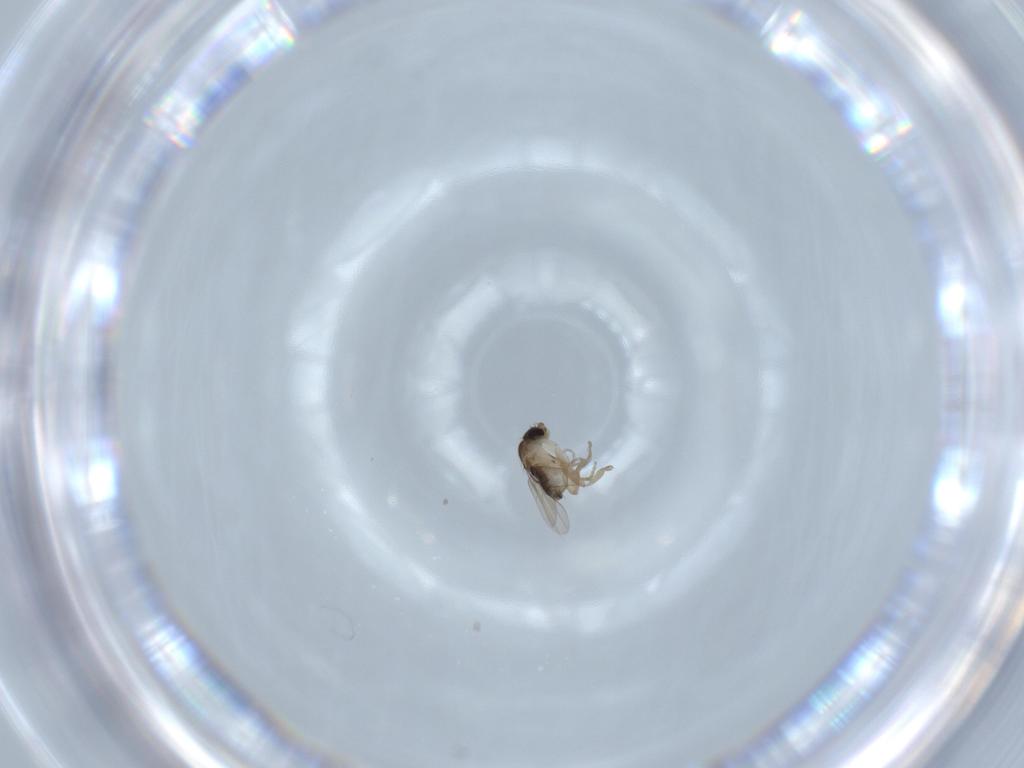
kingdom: Animalia
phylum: Arthropoda
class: Insecta
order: Diptera
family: Phoridae
